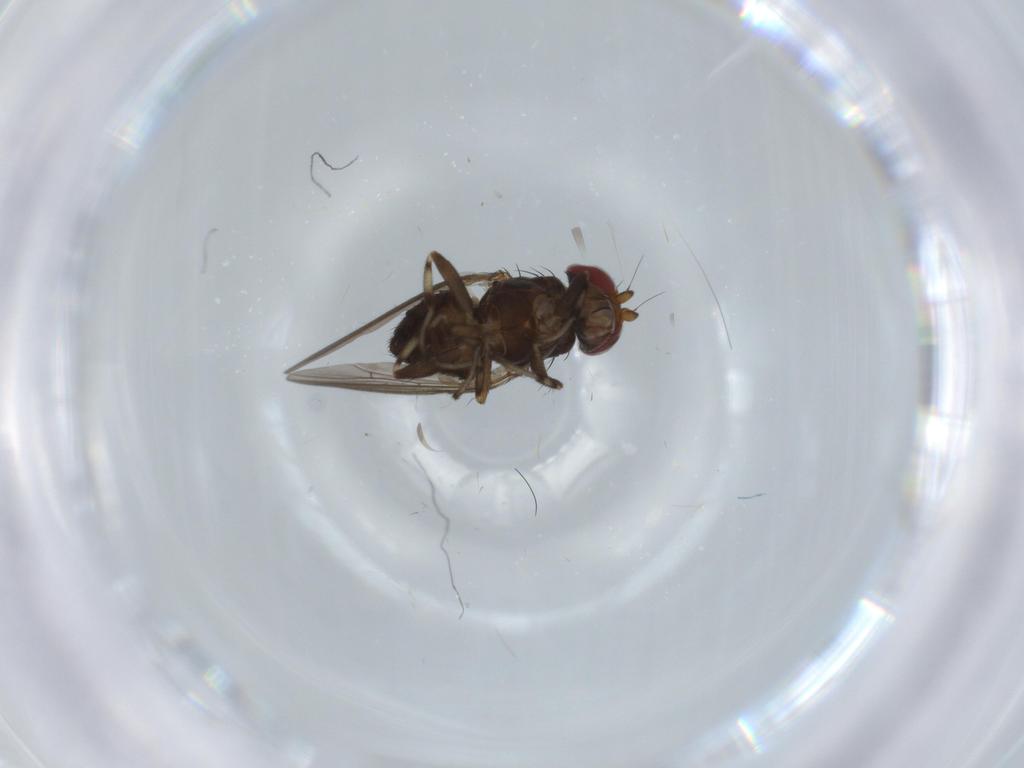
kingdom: Animalia
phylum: Arthropoda
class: Insecta
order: Diptera
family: Heleomyzidae
